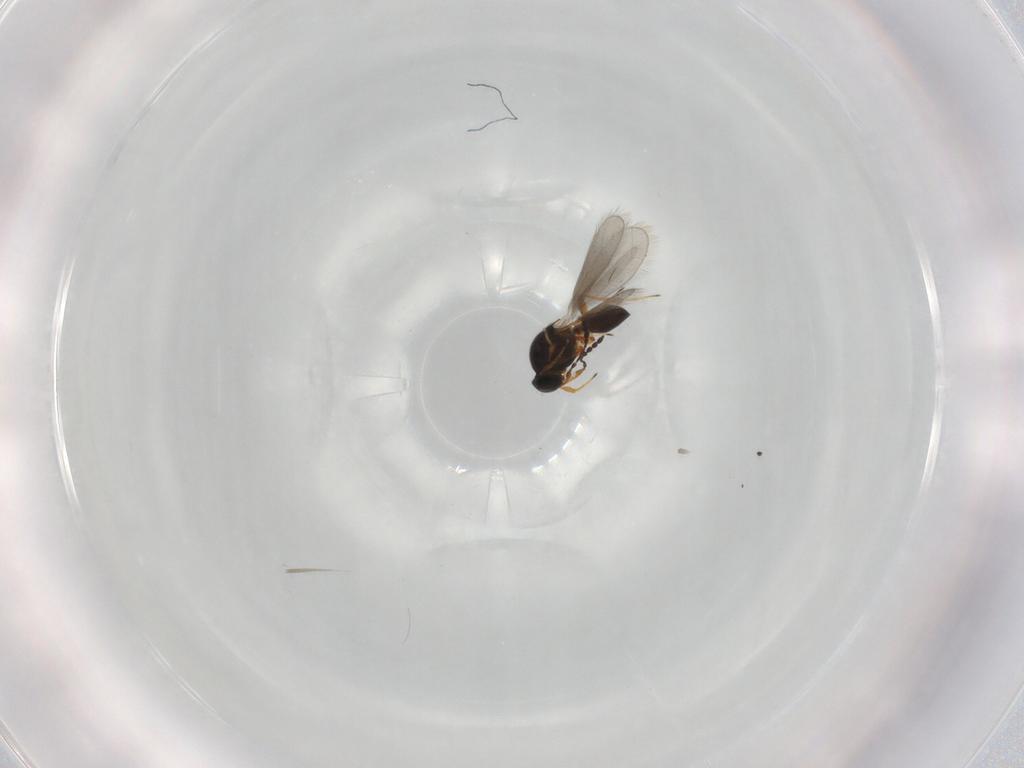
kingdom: Animalia
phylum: Arthropoda
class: Insecta
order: Hymenoptera
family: Platygastridae
